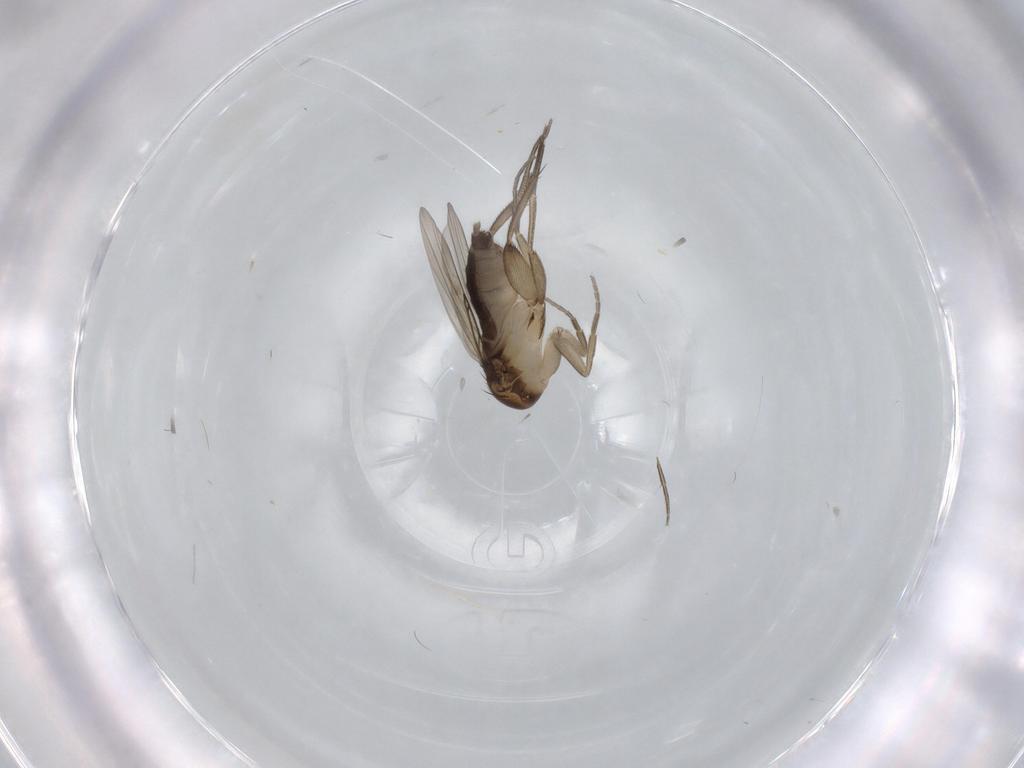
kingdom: Animalia
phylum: Arthropoda
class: Insecta
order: Diptera
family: Phoridae
